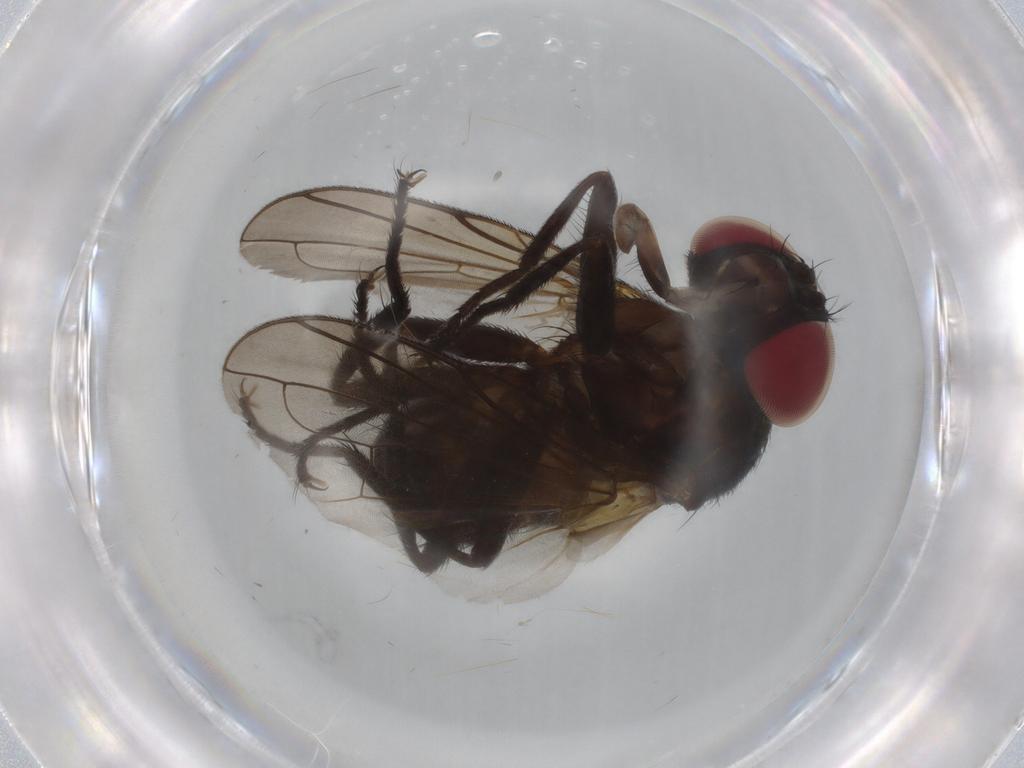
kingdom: Animalia
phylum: Arthropoda
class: Insecta
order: Diptera
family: Tachinidae
